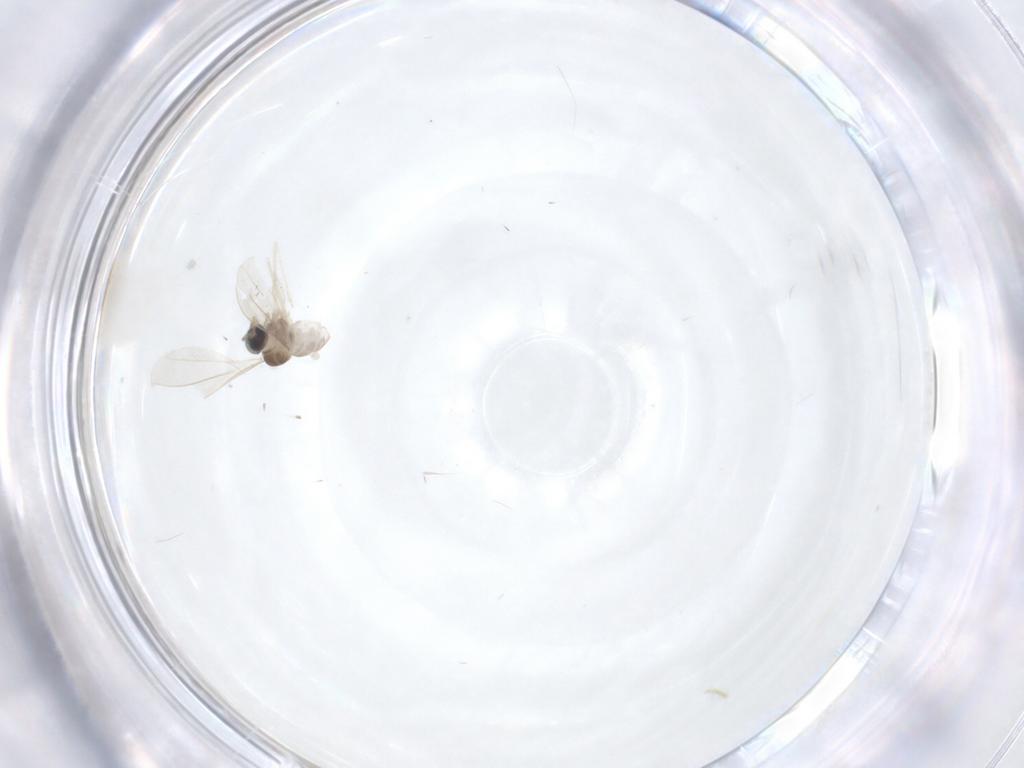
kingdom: Animalia
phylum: Arthropoda
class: Insecta
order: Diptera
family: Cecidomyiidae
